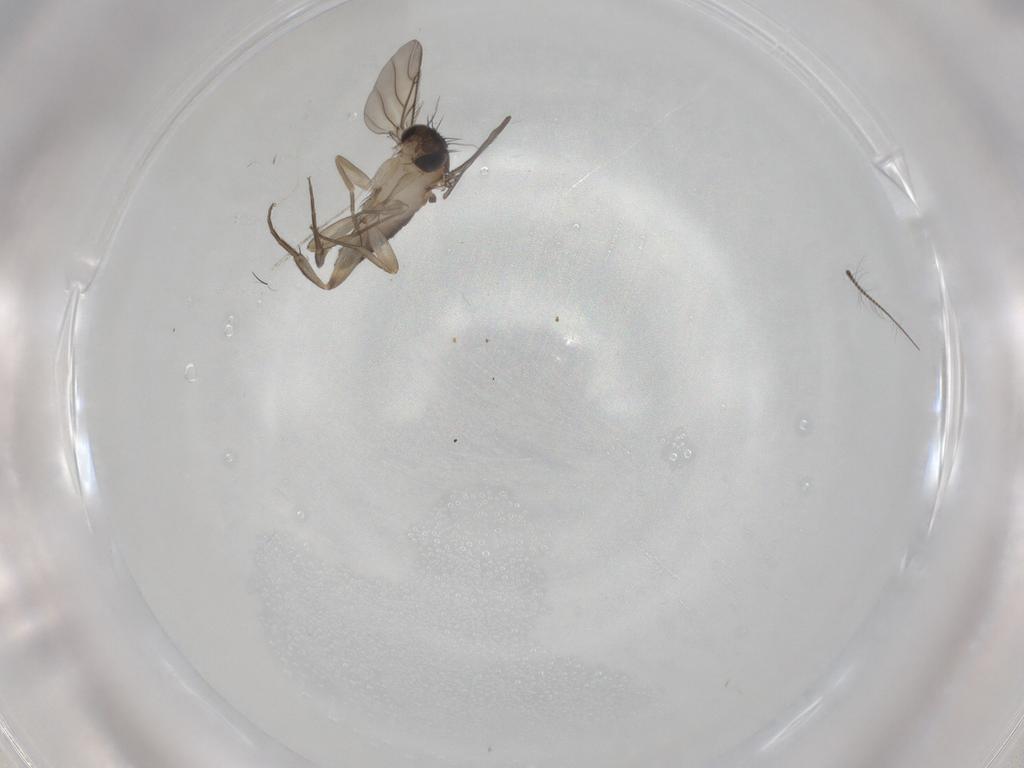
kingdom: Animalia
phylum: Arthropoda
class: Insecta
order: Diptera
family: Phoridae
